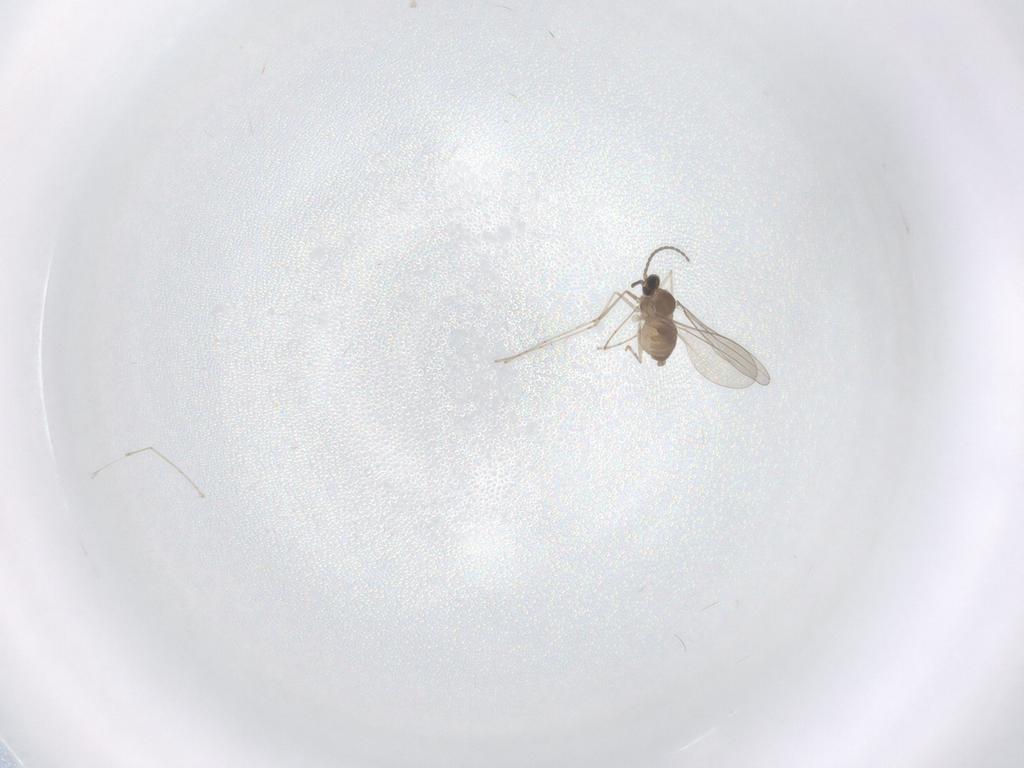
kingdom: Animalia
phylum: Arthropoda
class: Insecta
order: Diptera
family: Cecidomyiidae
